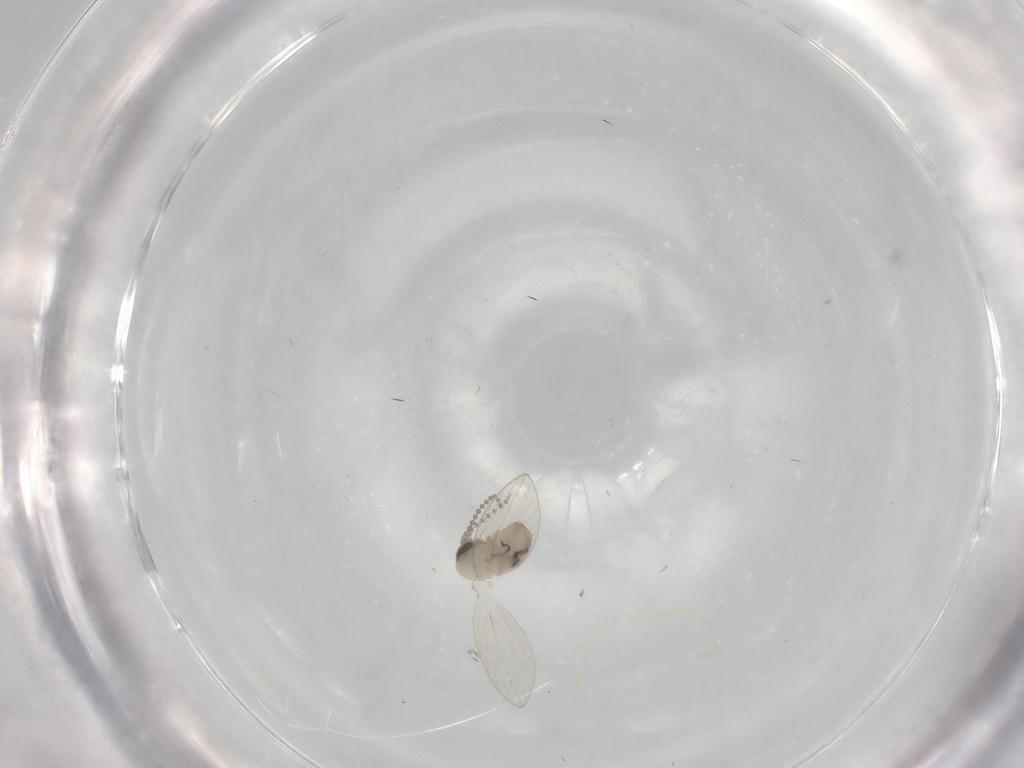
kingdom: Animalia
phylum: Arthropoda
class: Insecta
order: Diptera
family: Psychodidae
